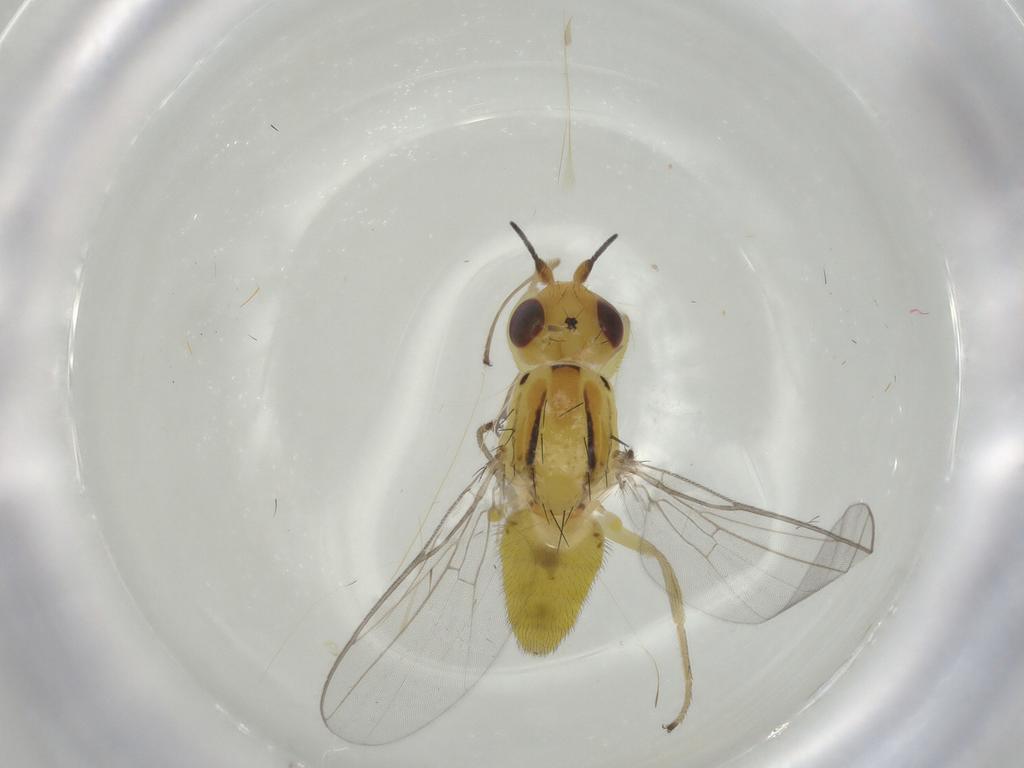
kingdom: Animalia
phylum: Arthropoda
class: Insecta
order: Diptera
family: Chloropidae
